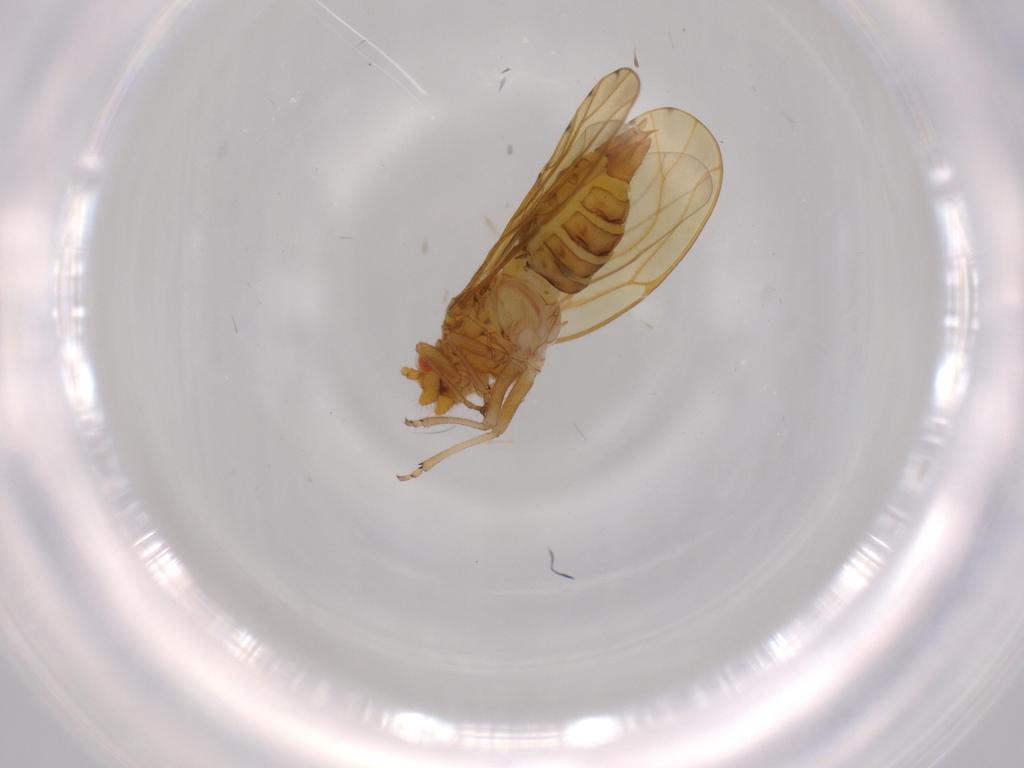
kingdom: Animalia
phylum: Arthropoda
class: Insecta
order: Hemiptera
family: Psylloidea_incertae_sedis
